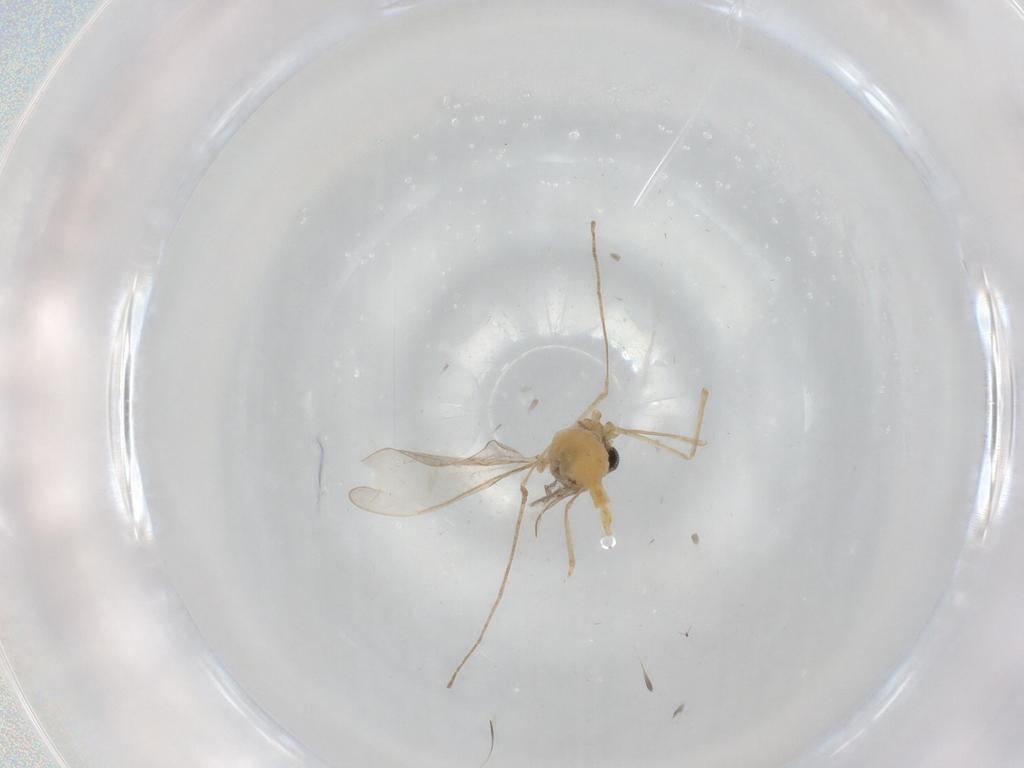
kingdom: Animalia
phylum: Arthropoda
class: Insecta
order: Diptera
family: Cecidomyiidae
